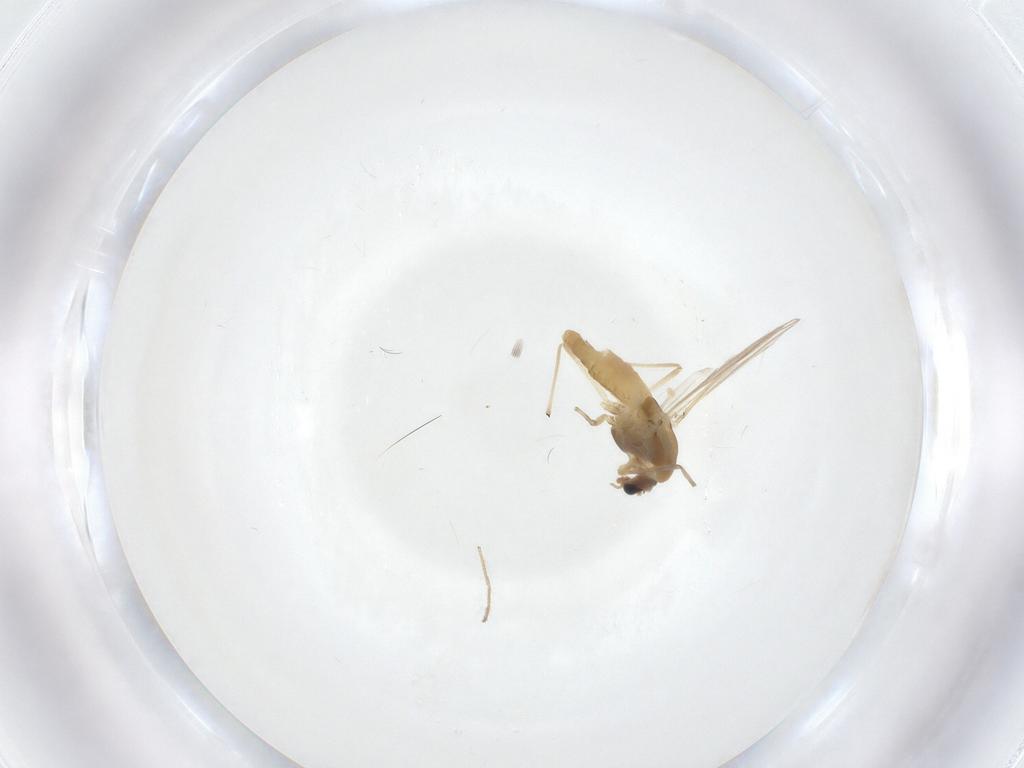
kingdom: Animalia
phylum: Arthropoda
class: Insecta
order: Diptera
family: Chironomidae
